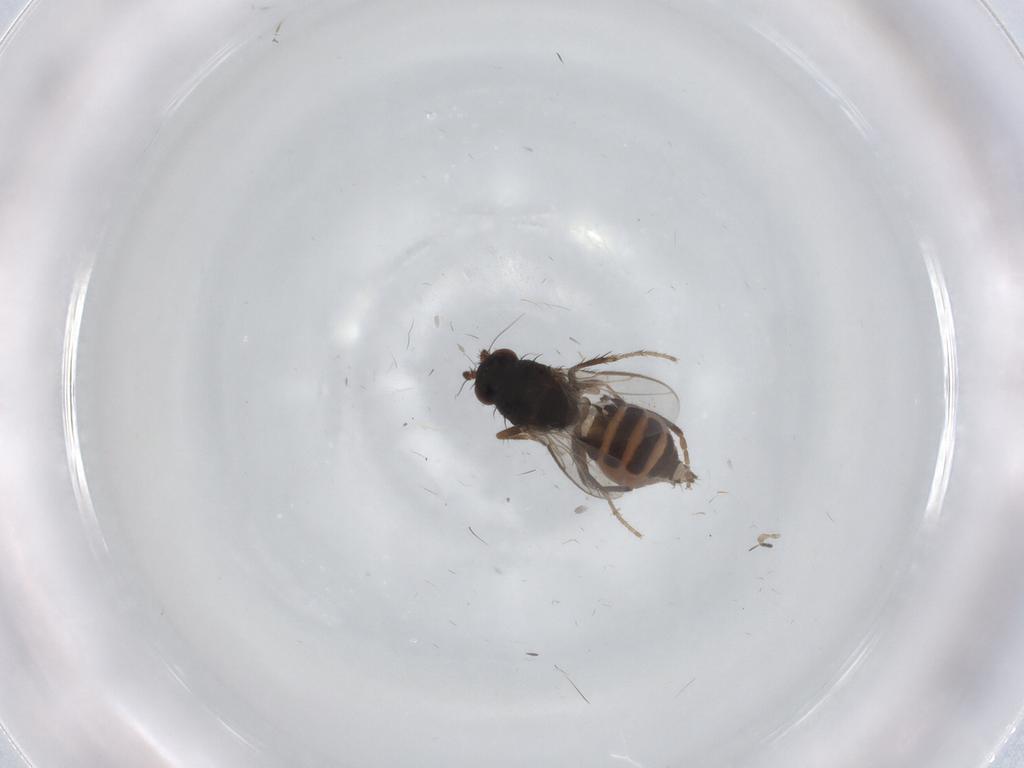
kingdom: Animalia
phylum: Arthropoda
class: Insecta
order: Diptera
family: Sphaeroceridae
